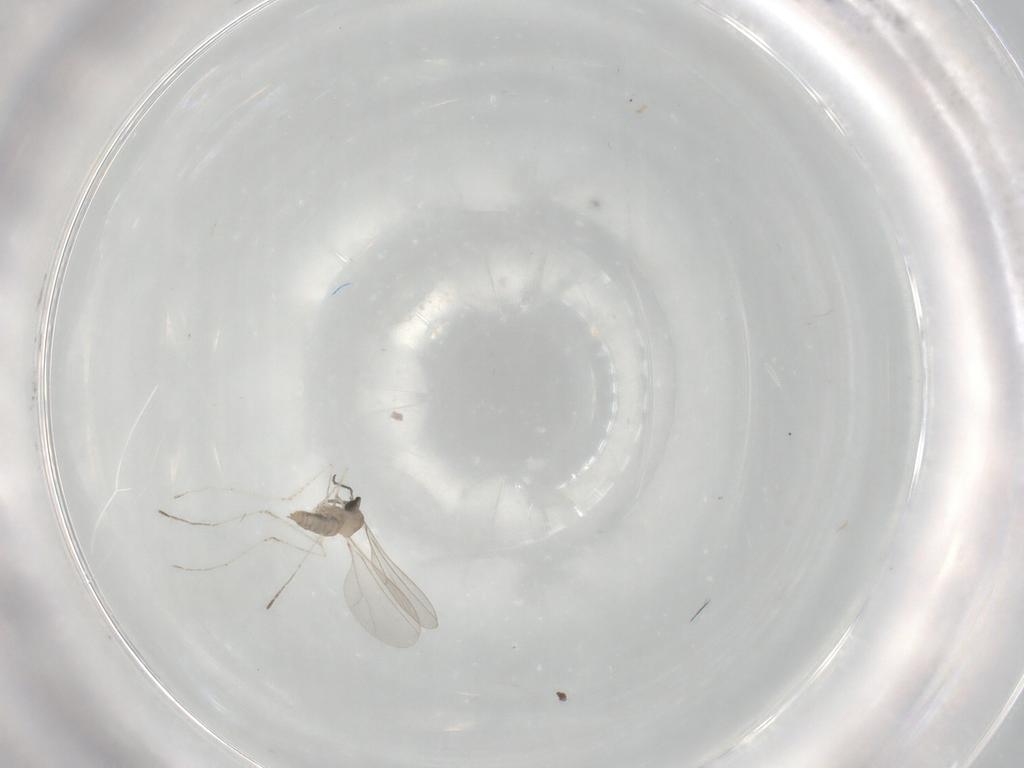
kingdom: Animalia
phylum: Arthropoda
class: Insecta
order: Diptera
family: Cecidomyiidae
